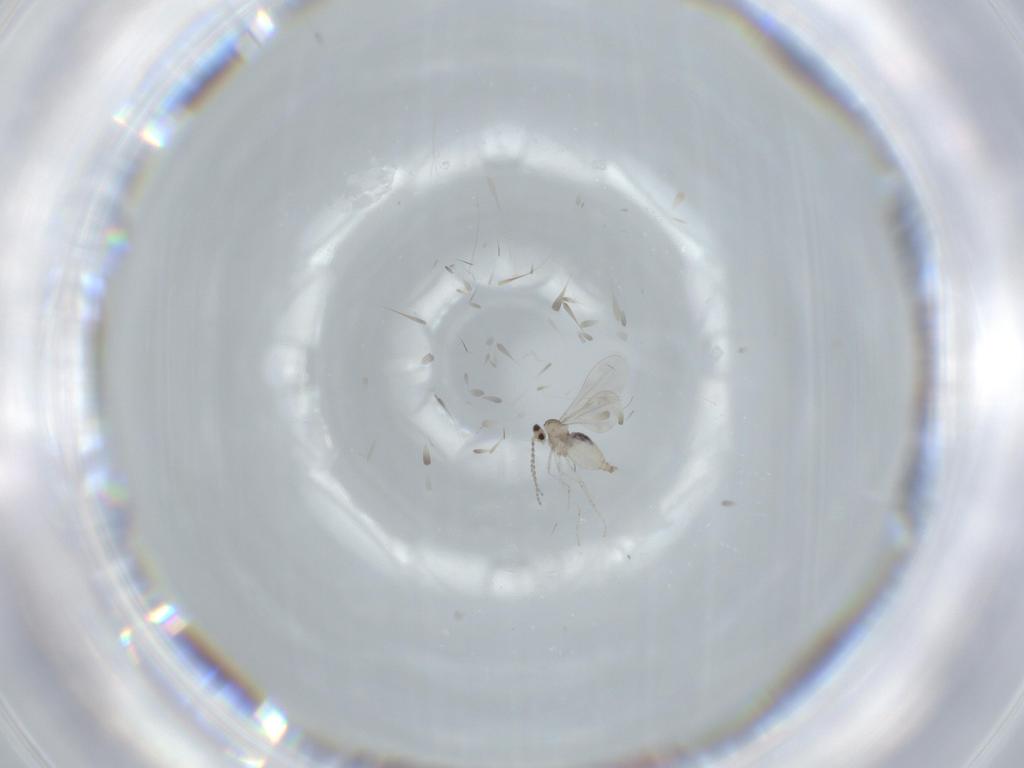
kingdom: Animalia
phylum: Arthropoda
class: Insecta
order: Diptera
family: Cecidomyiidae
